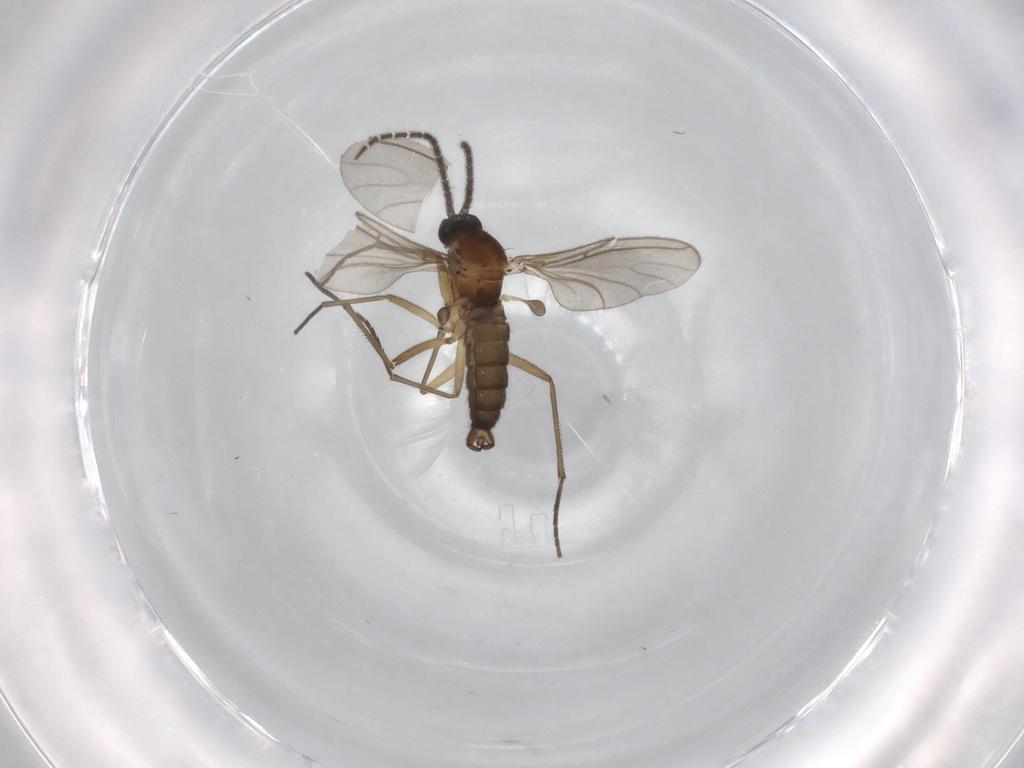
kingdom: Animalia
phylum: Arthropoda
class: Insecta
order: Diptera
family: Sciaridae
